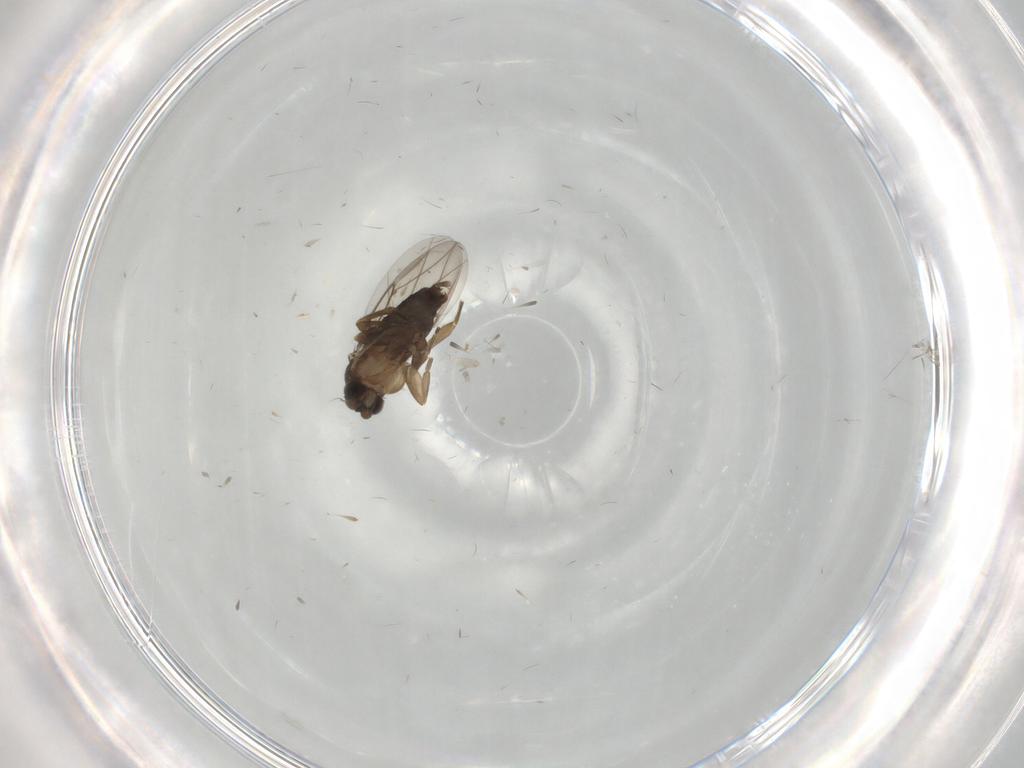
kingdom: Animalia
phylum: Arthropoda
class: Insecta
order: Diptera
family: Phoridae
